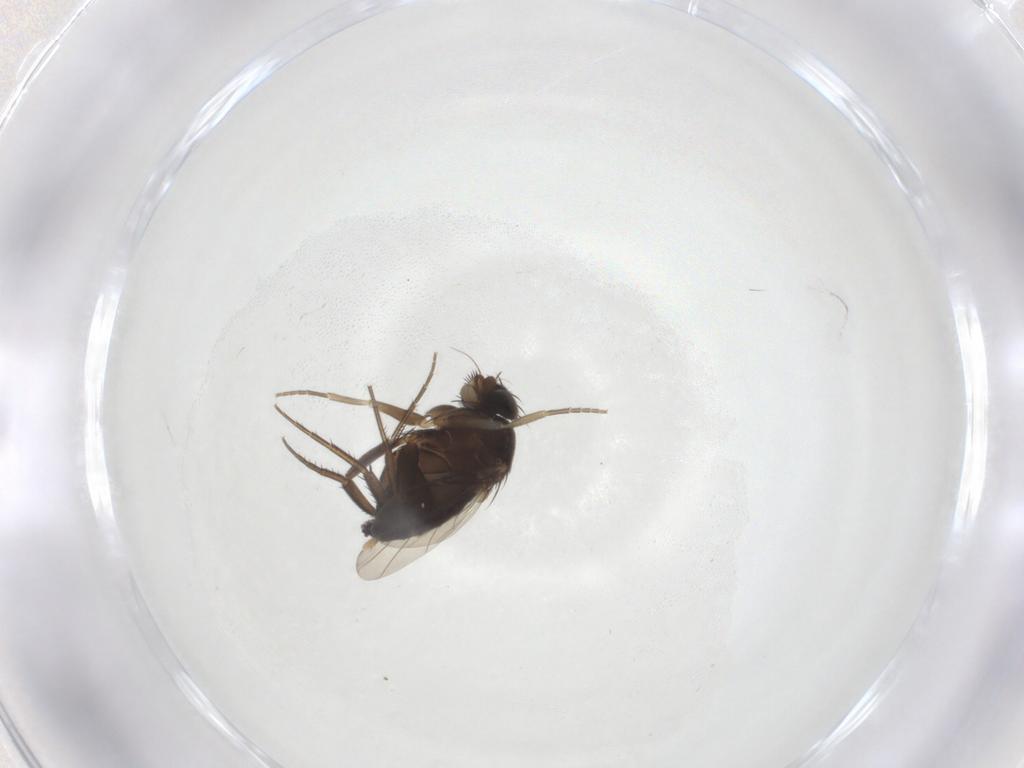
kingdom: Animalia
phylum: Arthropoda
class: Insecta
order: Diptera
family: Phoridae
